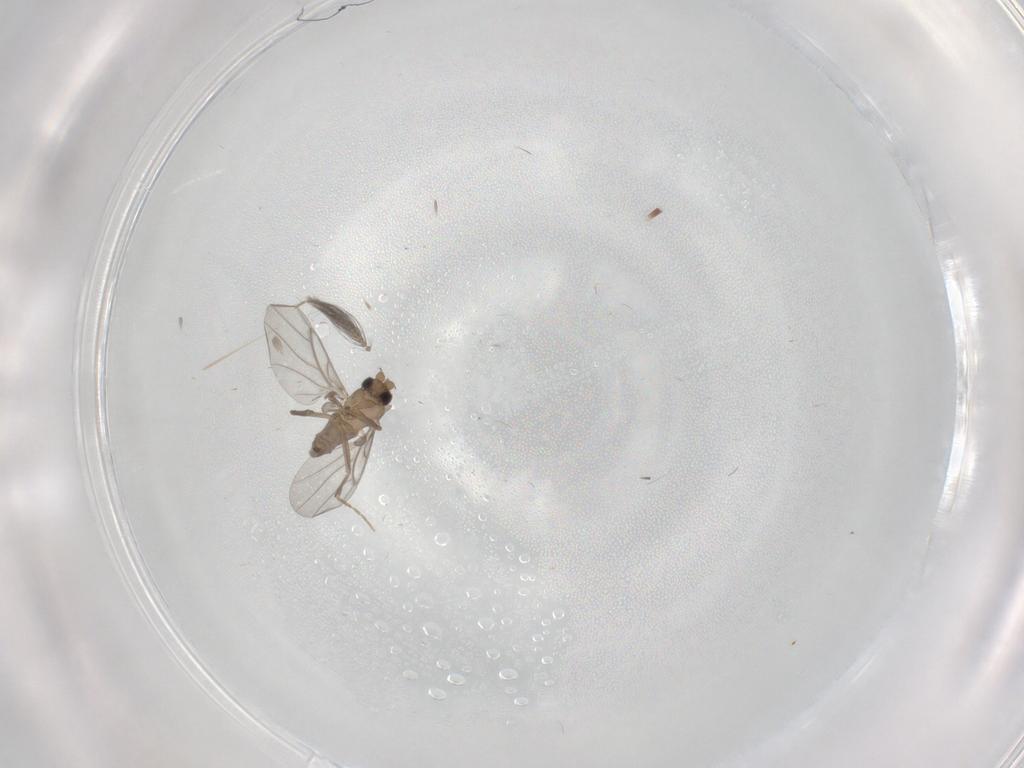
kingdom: Animalia
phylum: Arthropoda
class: Insecta
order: Diptera
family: Ceratopogonidae
